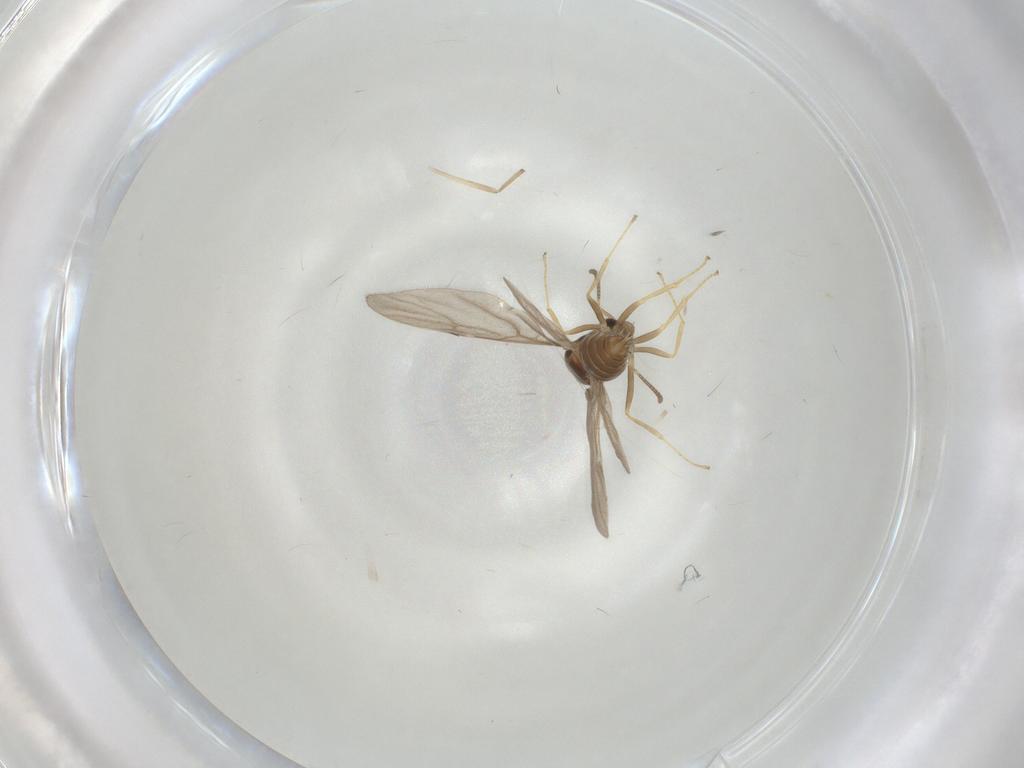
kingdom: Animalia
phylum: Arthropoda
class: Insecta
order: Hymenoptera
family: Formicidae
